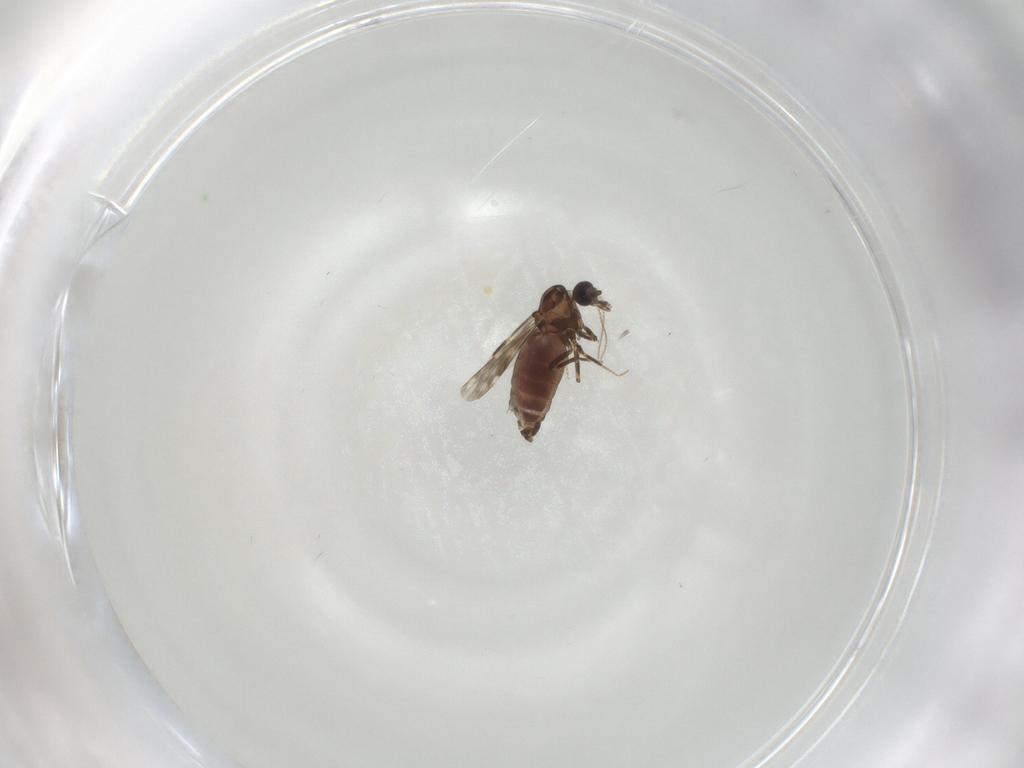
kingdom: Animalia
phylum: Arthropoda
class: Insecta
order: Diptera
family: Ceratopogonidae
